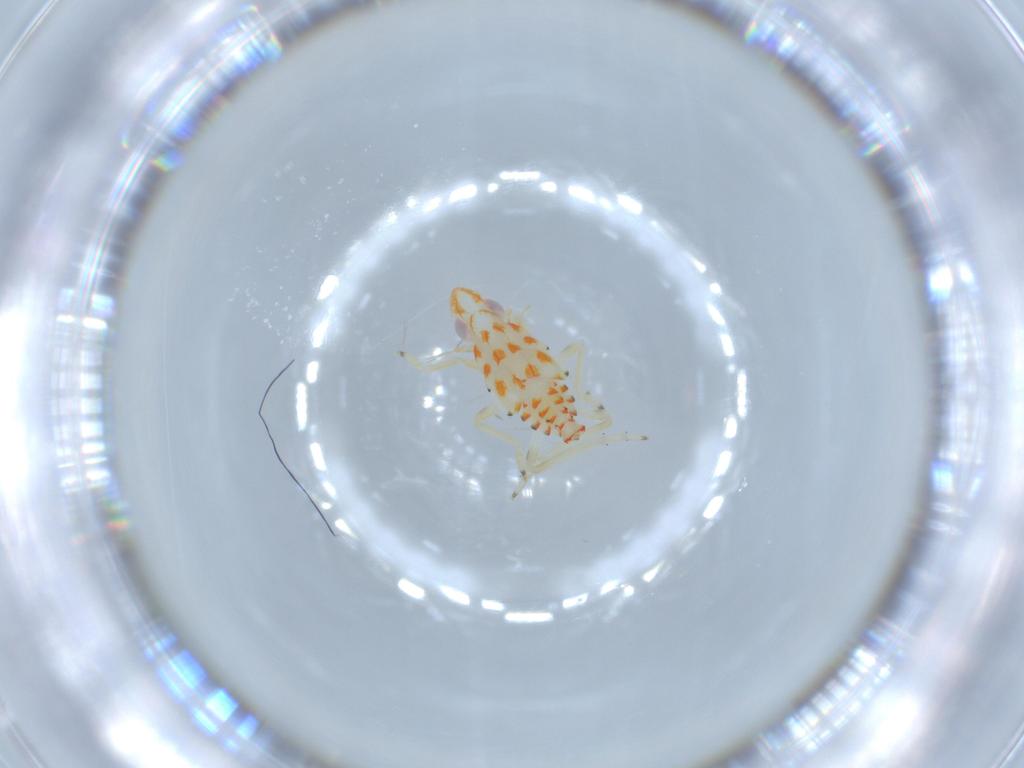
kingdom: Animalia
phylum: Arthropoda
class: Insecta
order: Hemiptera
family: Tropiduchidae
